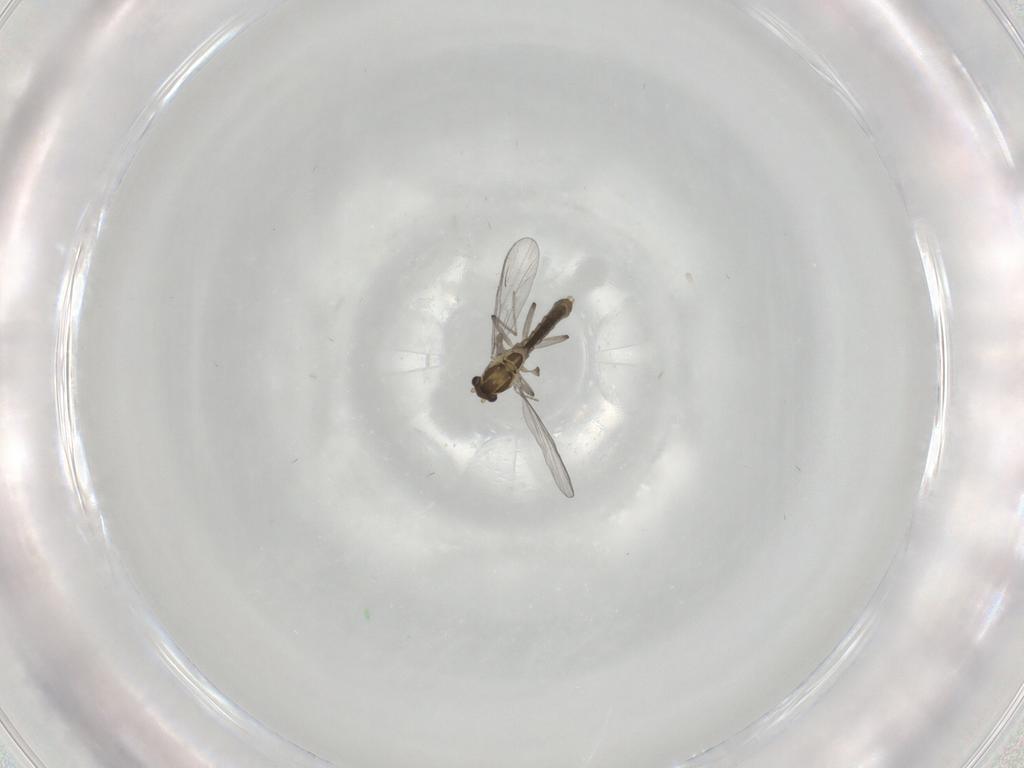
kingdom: Animalia
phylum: Arthropoda
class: Insecta
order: Diptera
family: Chironomidae
